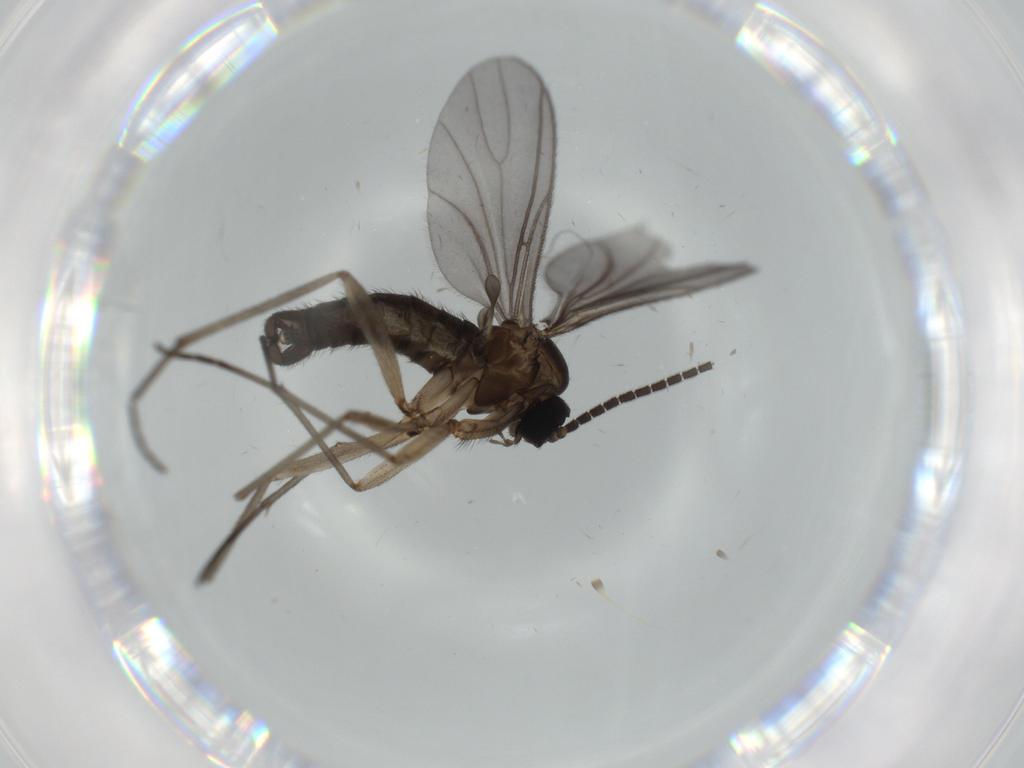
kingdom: Animalia
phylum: Arthropoda
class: Insecta
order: Diptera
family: Sciaridae
